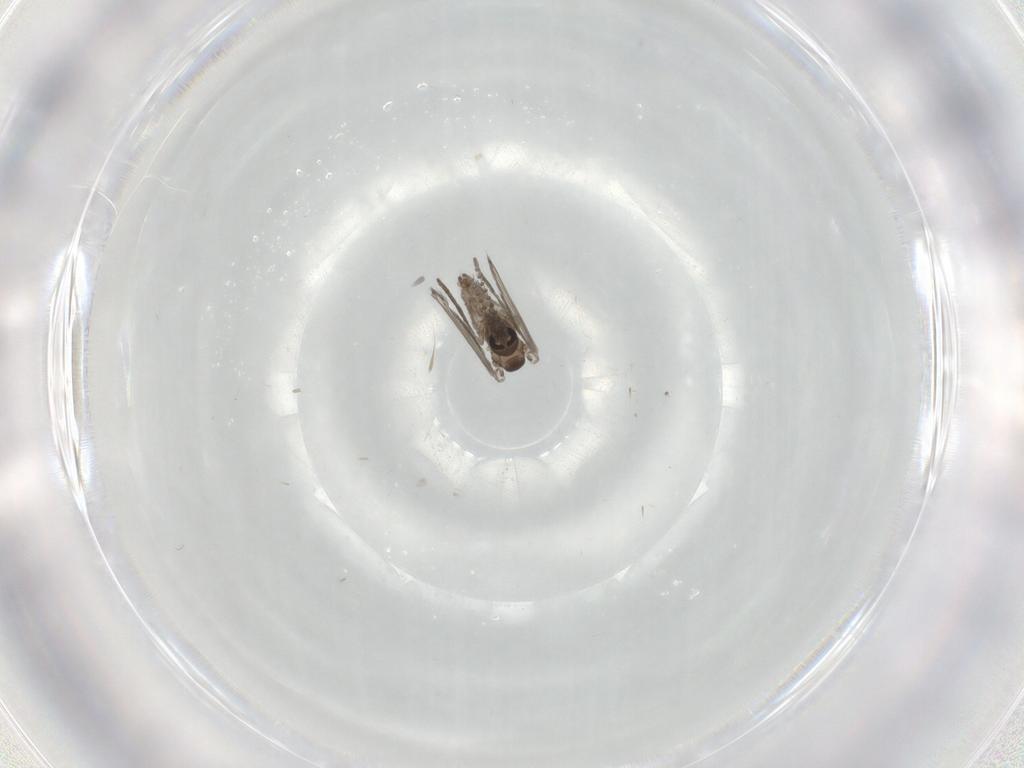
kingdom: Animalia
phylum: Arthropoda
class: Insecta
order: Diptera
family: Psychodidae
